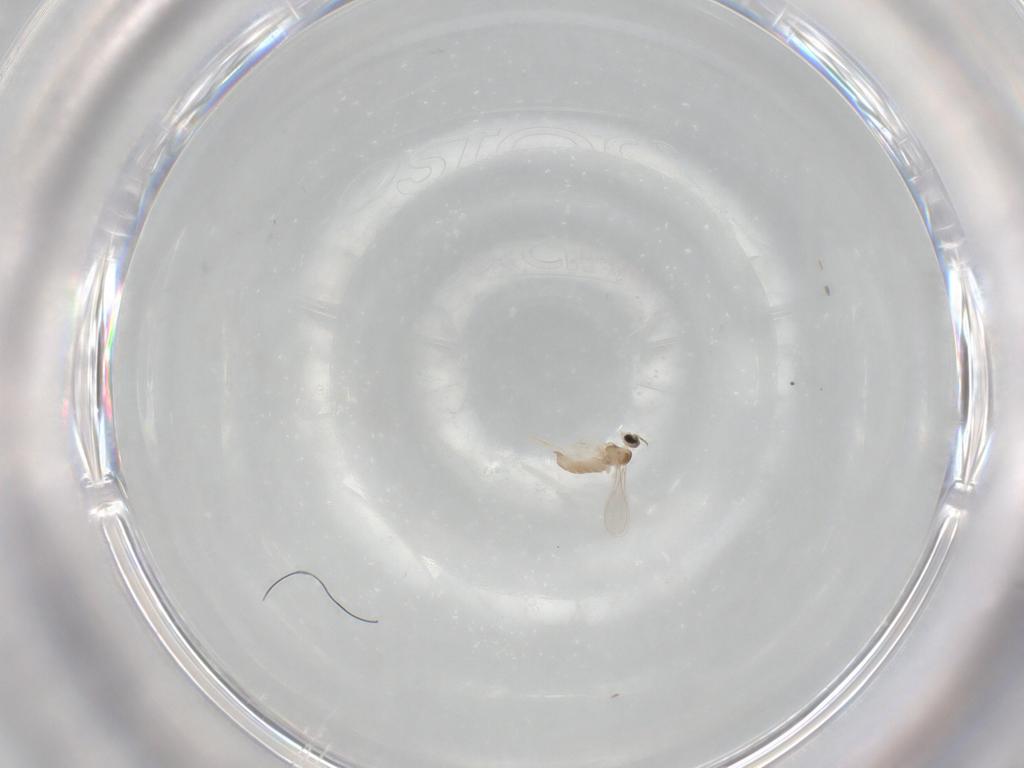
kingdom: Animalia
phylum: Arthropoda
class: Insecta
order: Diptera
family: Cecidomyiidae
